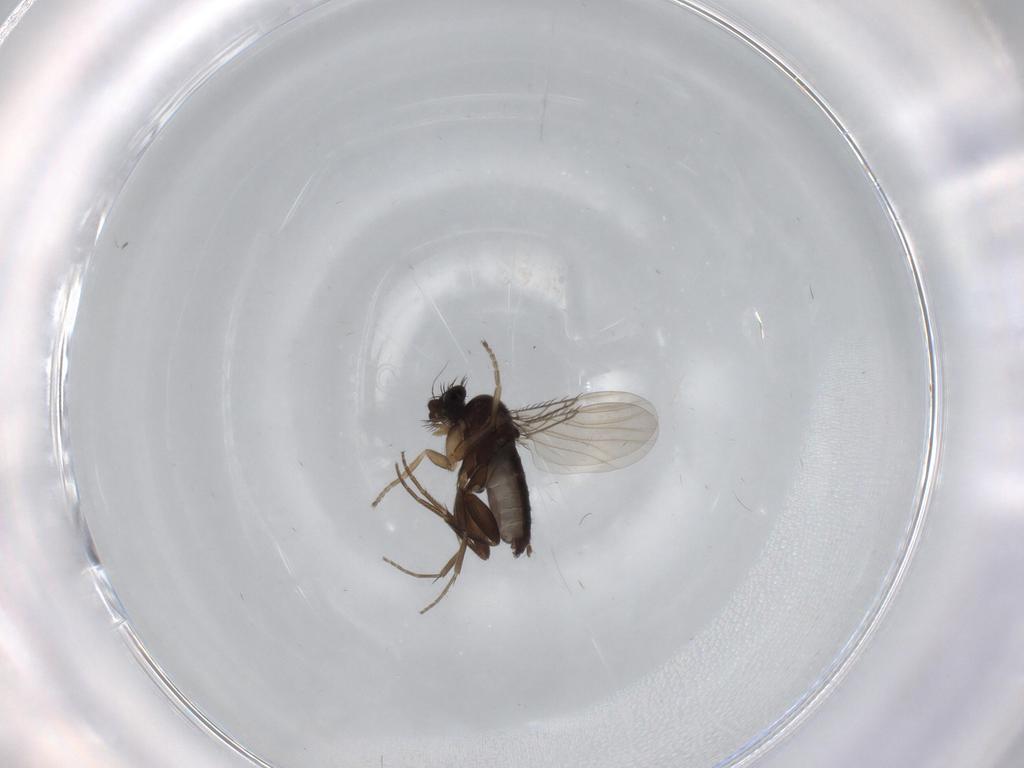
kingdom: Animalia
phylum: Arthropoda
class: Insecta
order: Diptera
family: Phoridae
